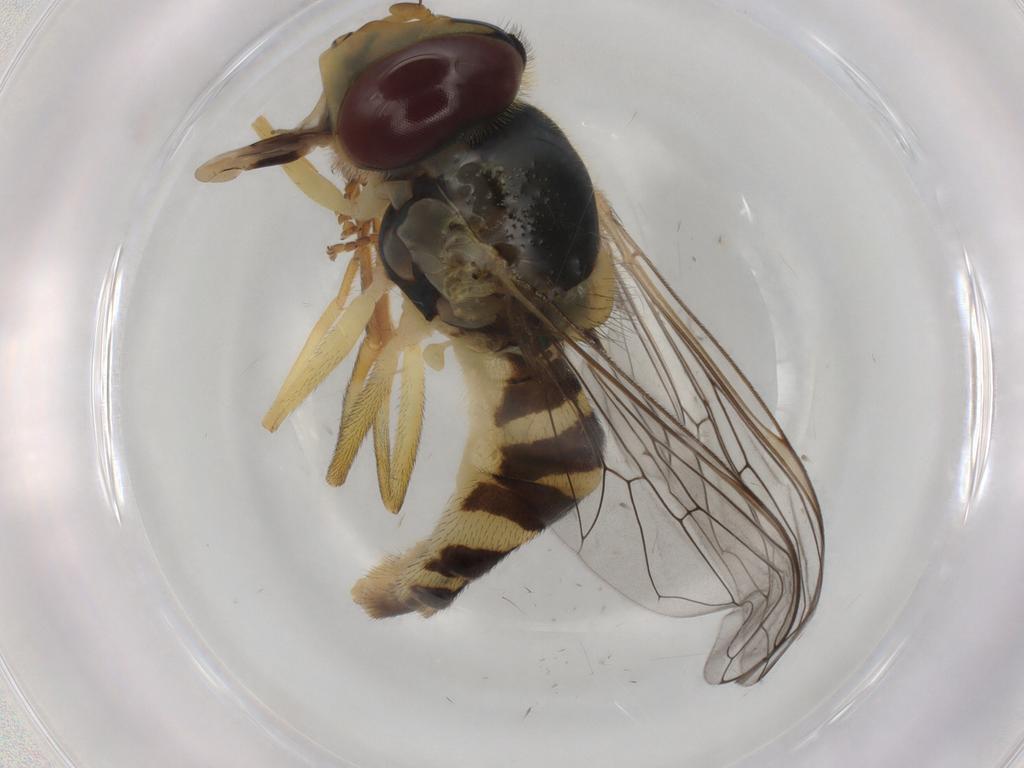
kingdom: Animalia
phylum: Arthropoda
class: Insecta
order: Diptera
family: Syrphidae
